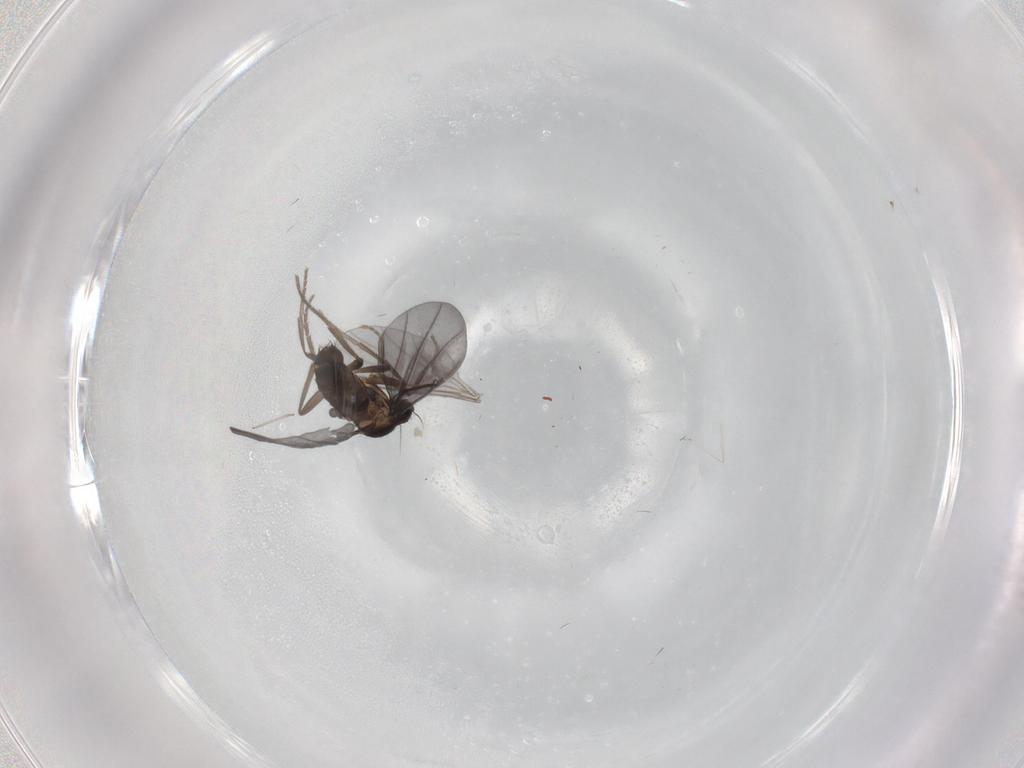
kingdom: Animalia
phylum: Arthropoda
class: Insecta
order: Diptera
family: Phoridae
